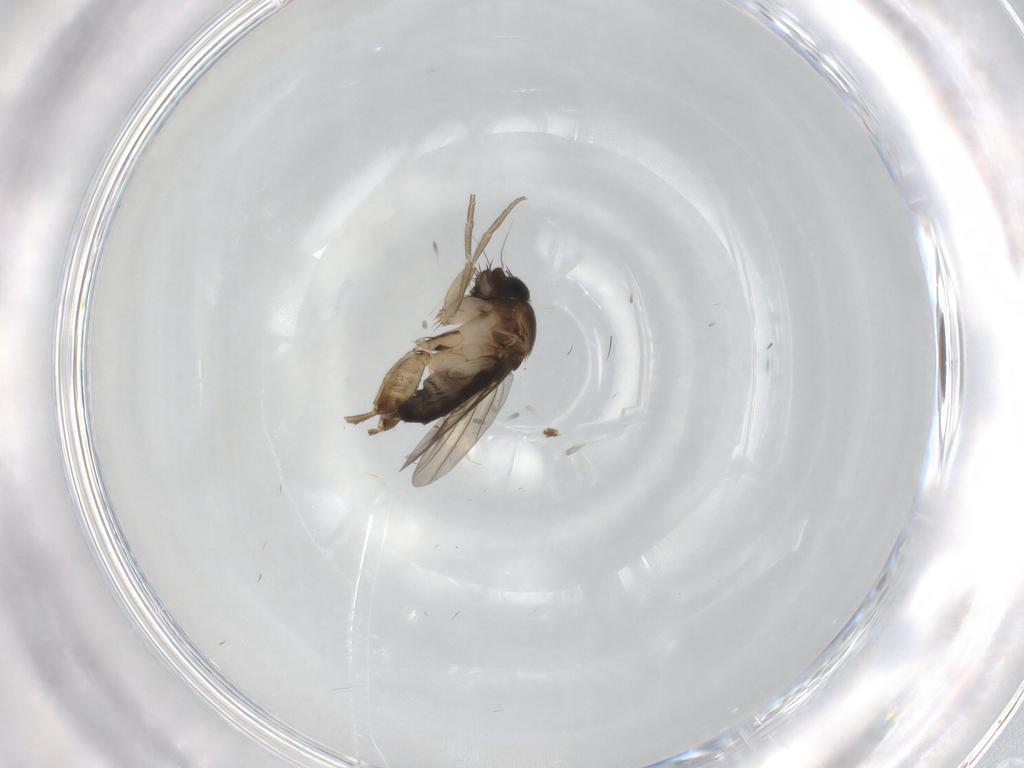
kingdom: Animalia
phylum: Arthropoda
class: Insecta
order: Diptera
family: Phoridae
